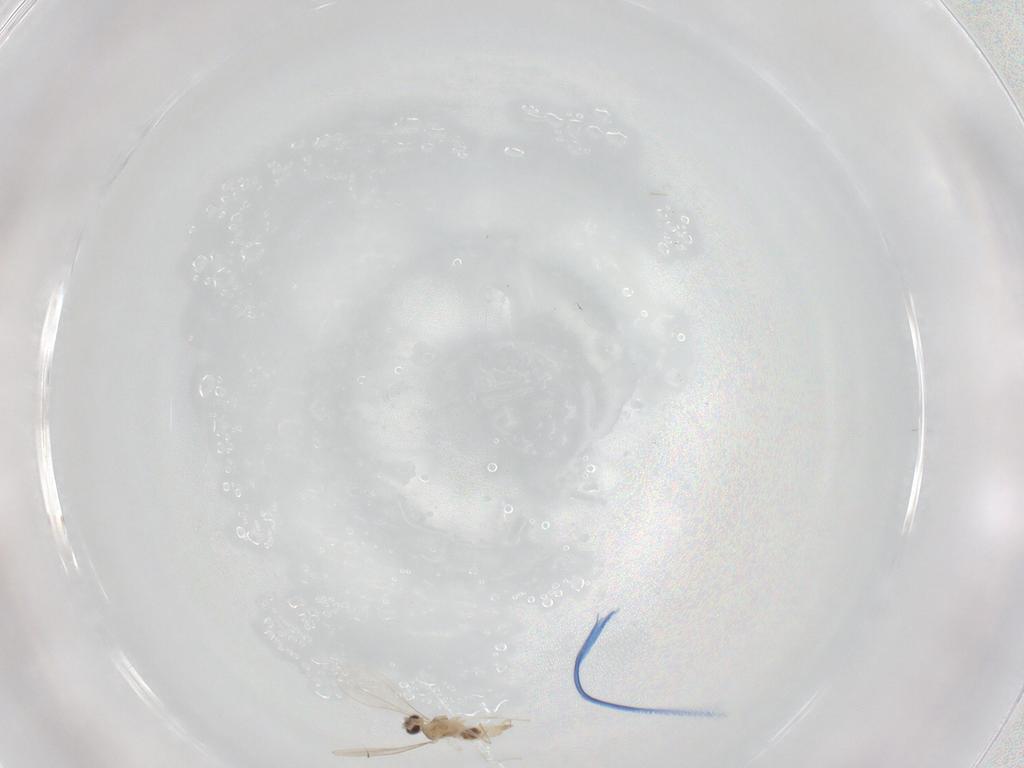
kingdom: Animalia
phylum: Arthropoda
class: Insecta
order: Diptera
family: Cecidomyiidae
